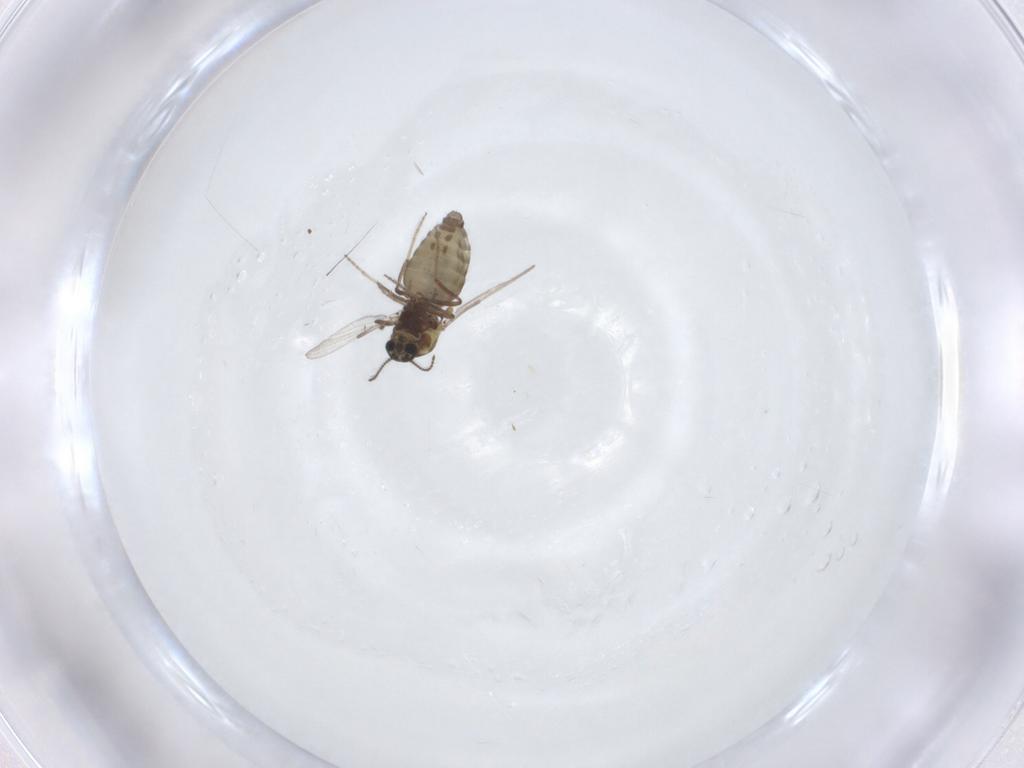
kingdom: Animalia
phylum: Arthropoda
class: Insecta
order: Diptera
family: Ceratopogonidae
